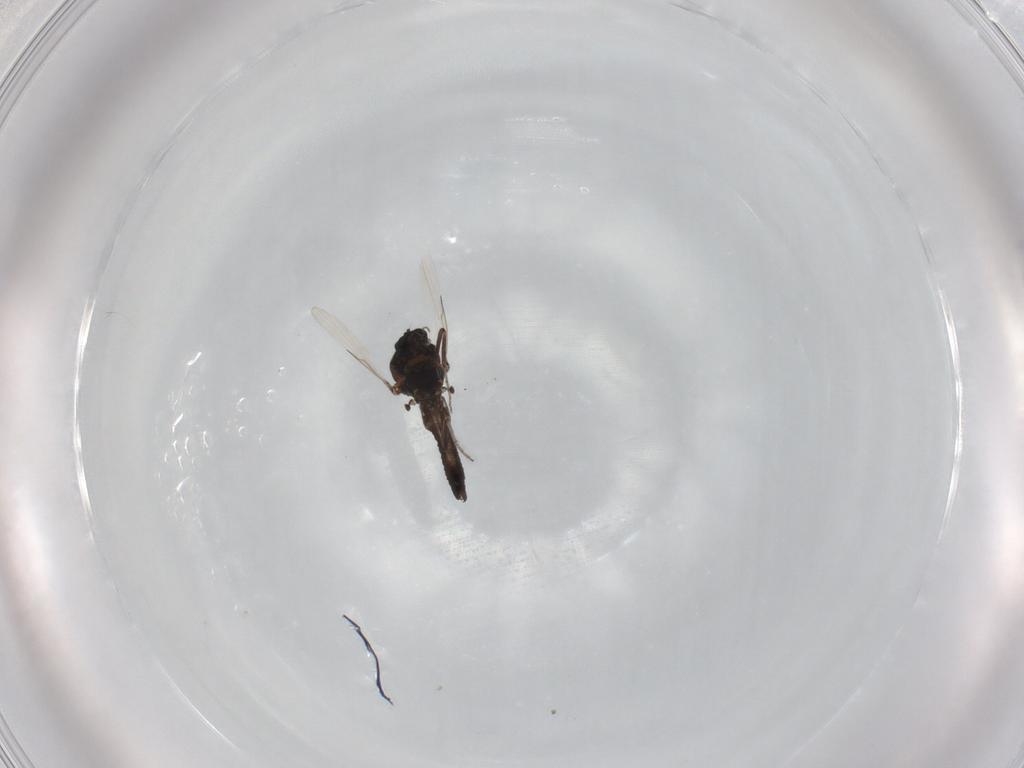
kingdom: Animalia
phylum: Arthropoda
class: Insecta
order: Diptera
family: Ceratopogonidae
